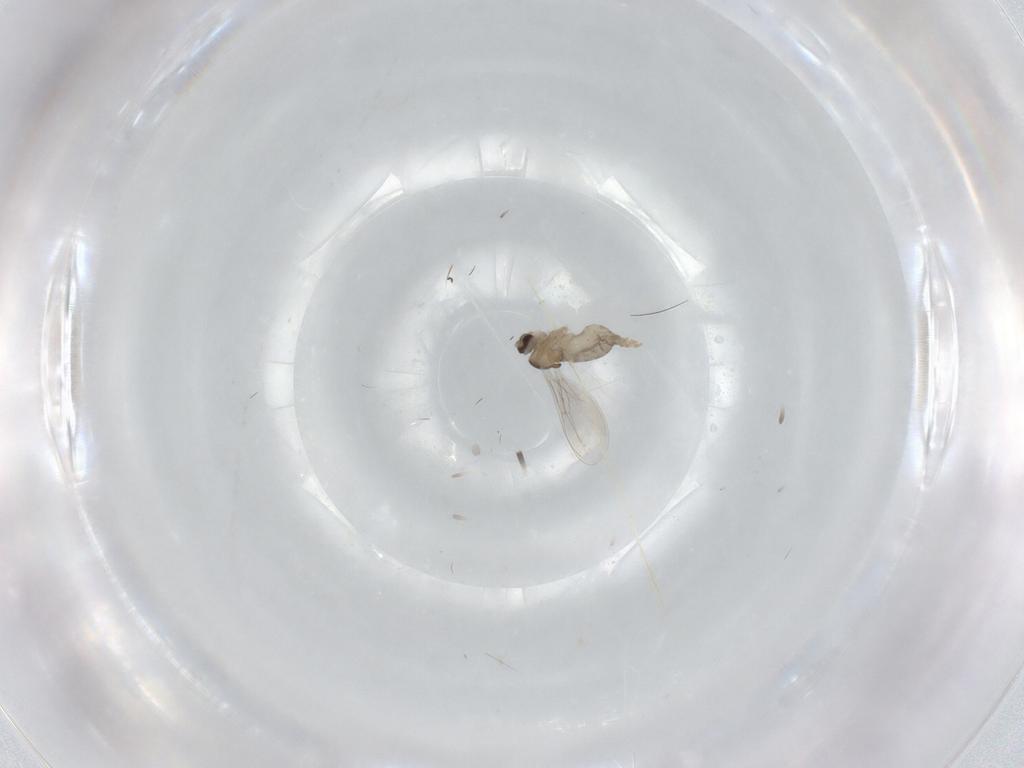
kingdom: Animalia
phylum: Arthropoda
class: Insecta
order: Diptera
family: Cecidomyiidae
